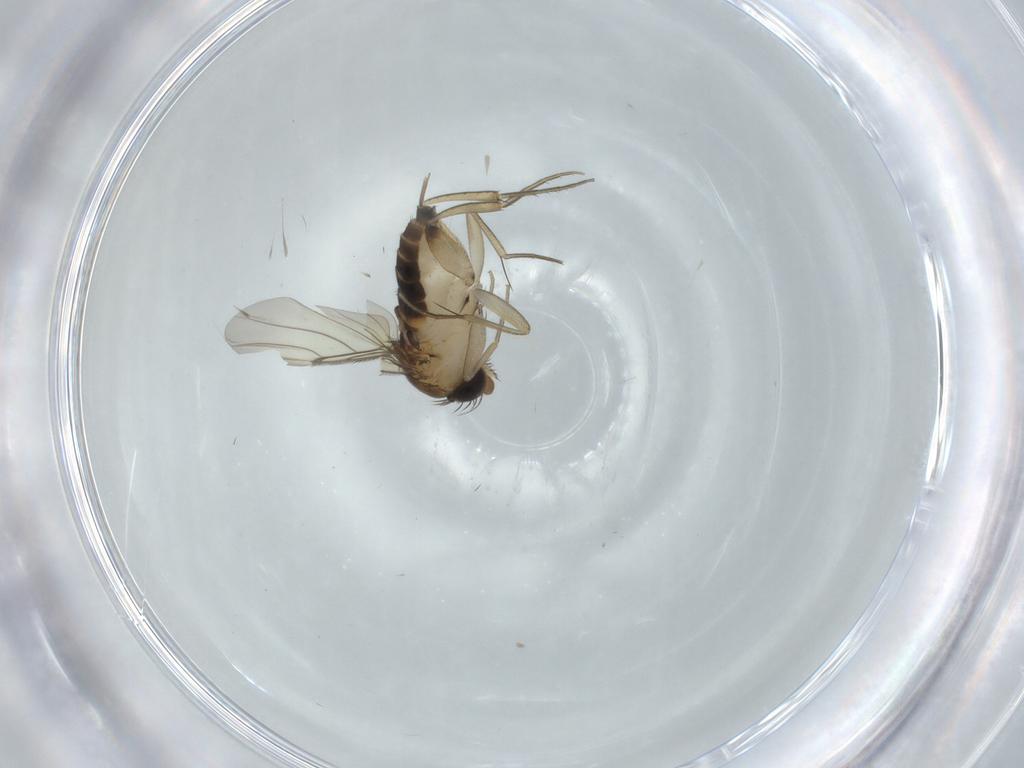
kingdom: Animalia
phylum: Arthropoda
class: Insecta
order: Diptera
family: Phoridae
